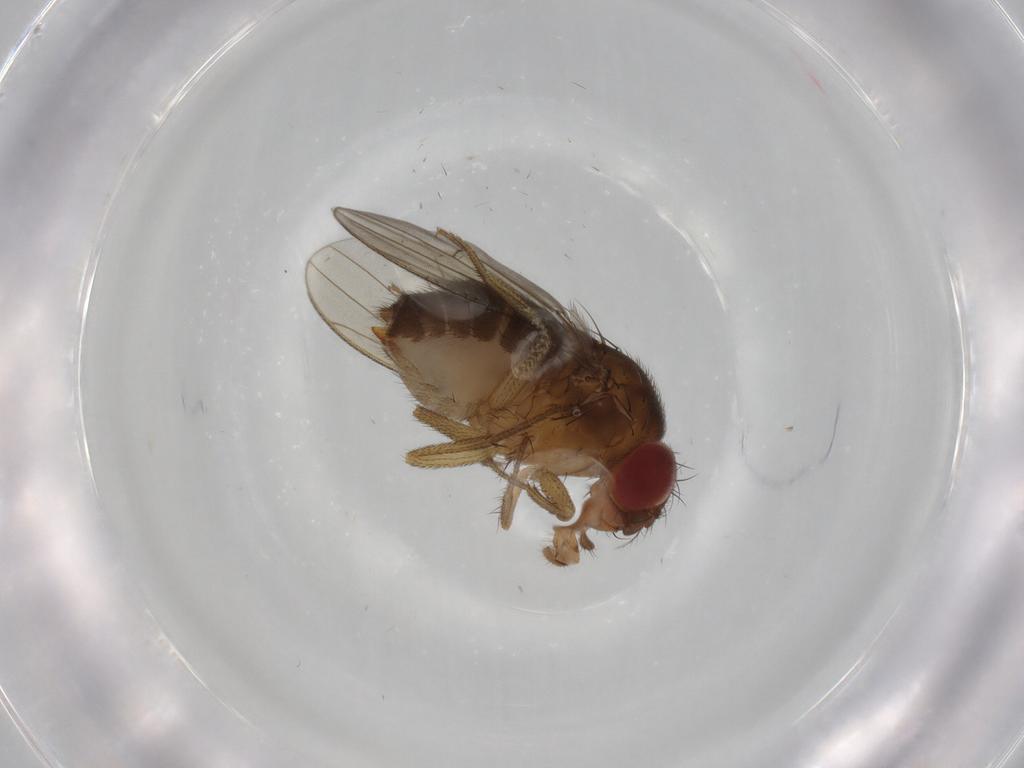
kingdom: Animalia
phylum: Arthropoda
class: Insecta
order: Diptera
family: Drosophilidae
